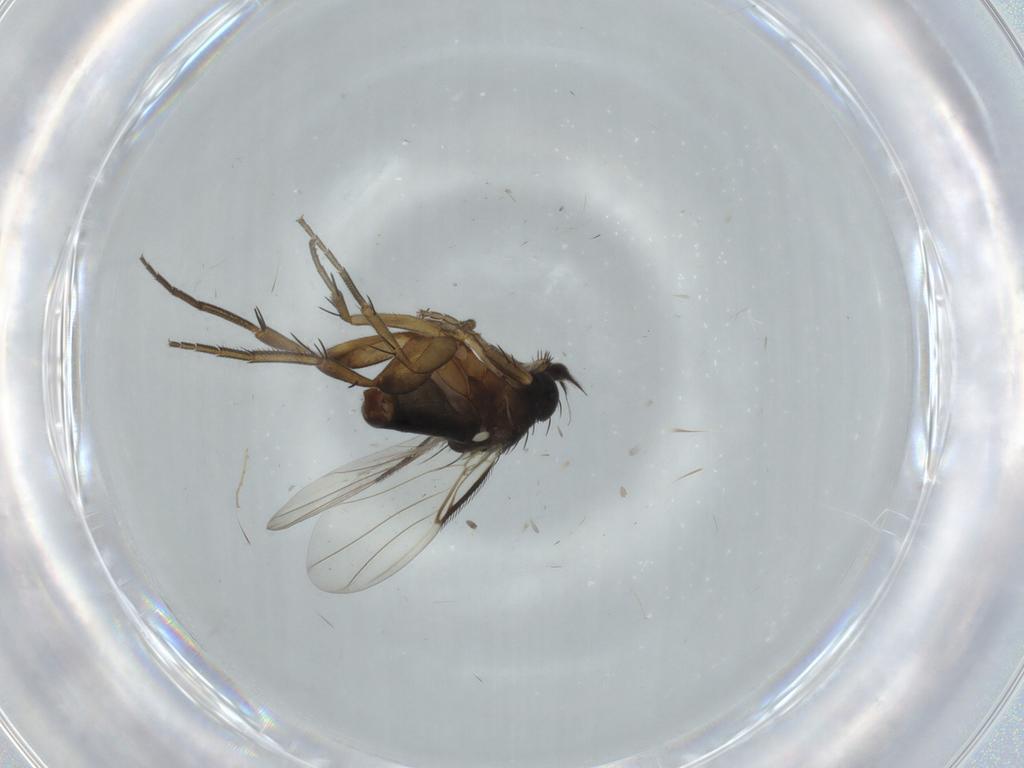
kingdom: Animalia
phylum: Arthropoda
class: Insecta
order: Diptera
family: Phoridae
